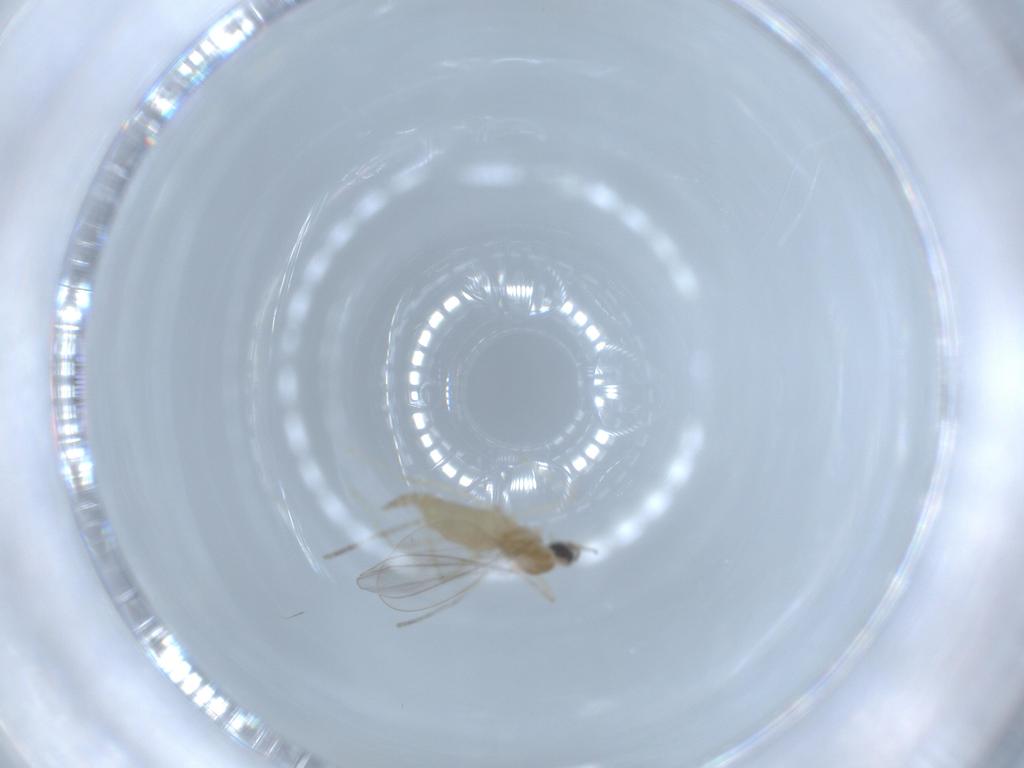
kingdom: Animalia
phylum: Arthropoda
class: Insecta
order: Diptera
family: Cecidomyiidae
